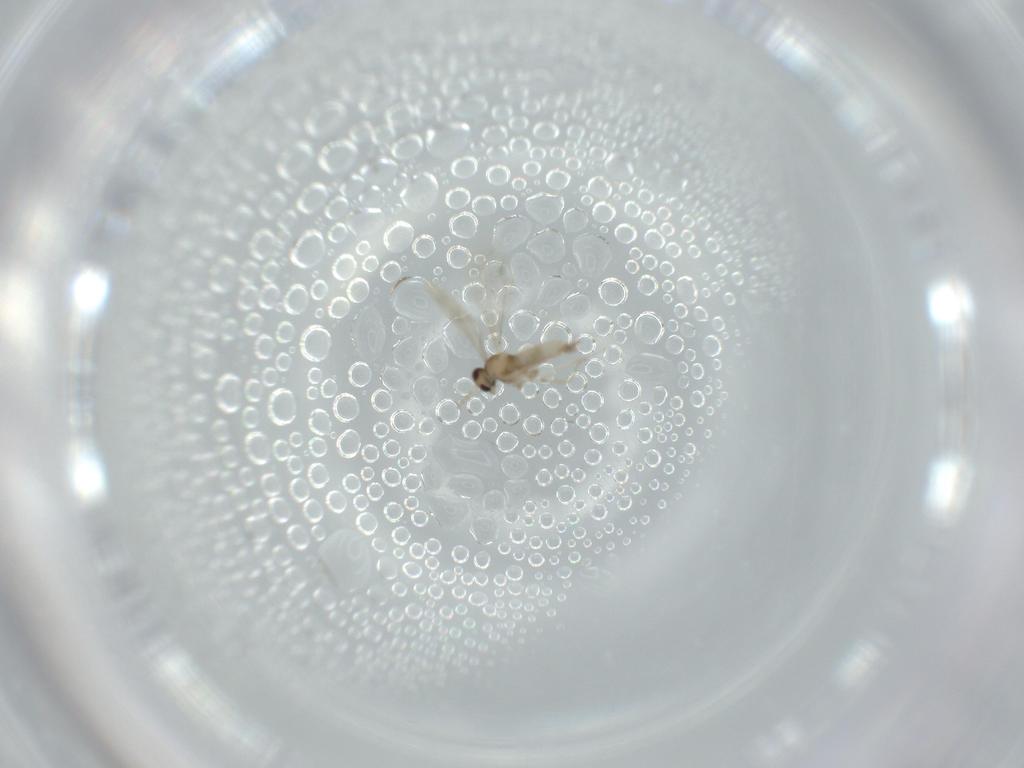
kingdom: Animalia
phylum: Arthropoda
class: Insecta
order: Diptera
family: Cecidomyiidae
